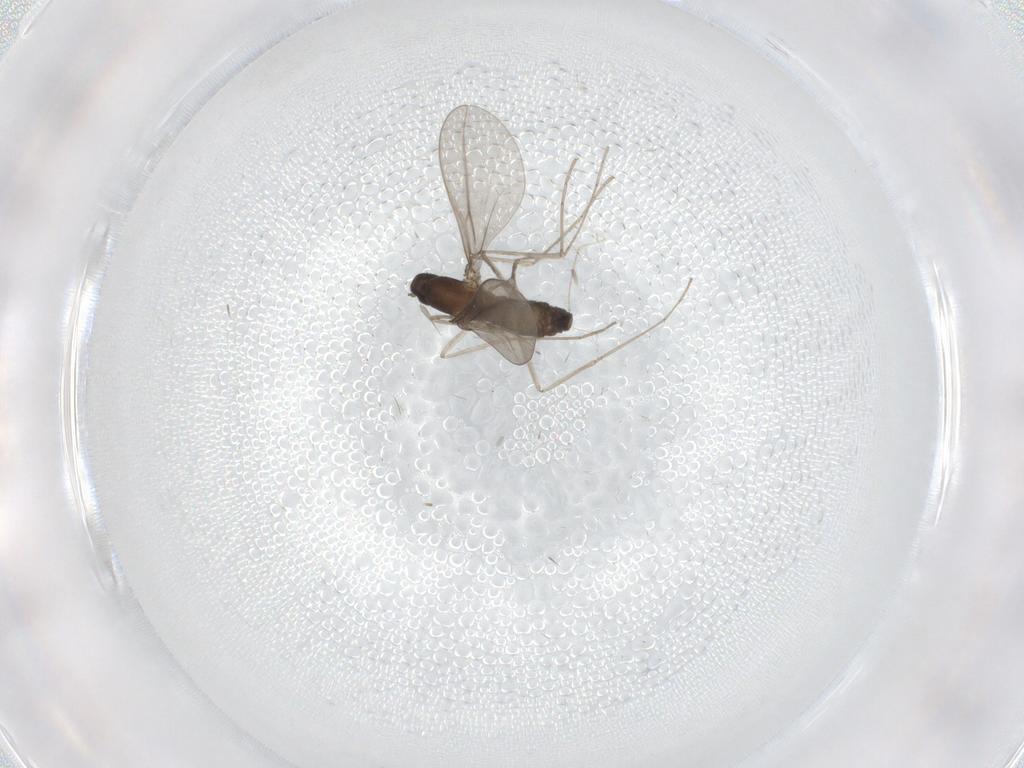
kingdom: Animalia
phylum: Arthropoda
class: Insecta
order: Diptera
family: Cecidomyiidae
